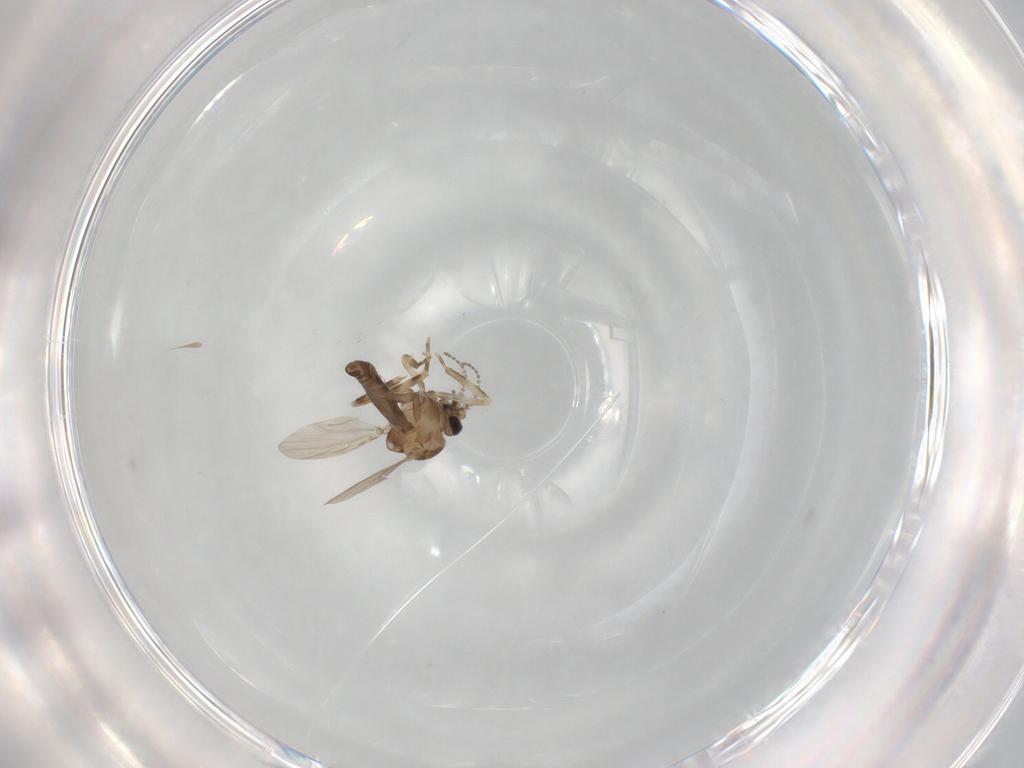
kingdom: Animalia
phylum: Arthropoda
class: Insecta
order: Diptera
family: Ceratopogonidae
